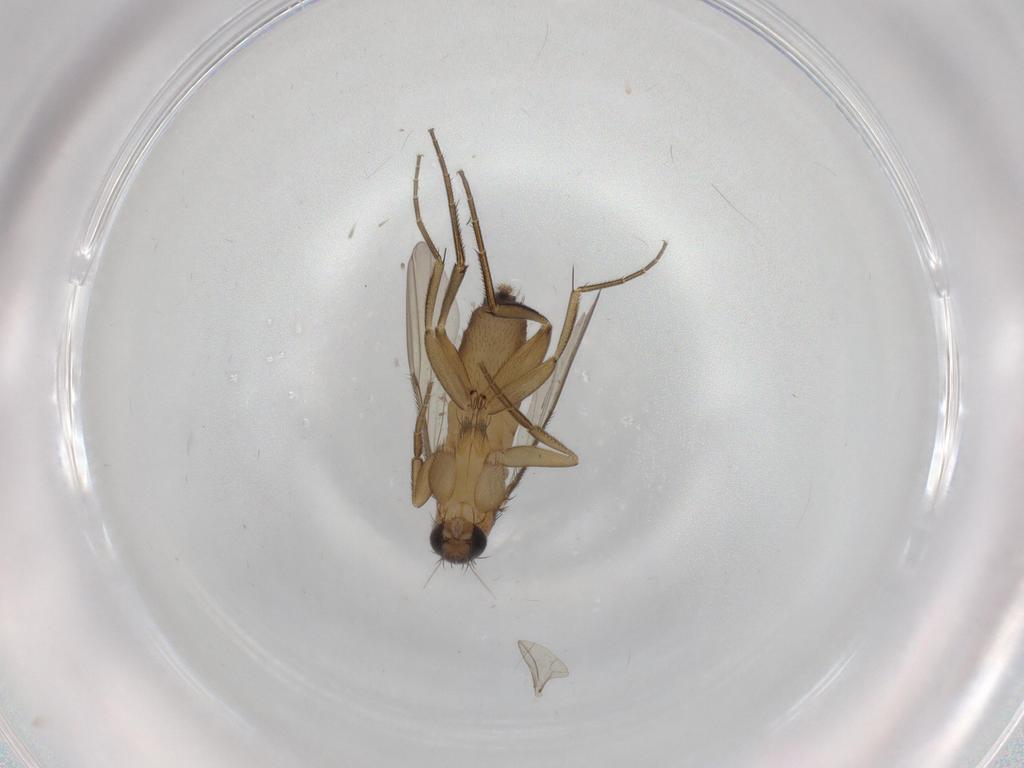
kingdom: Animalia
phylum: Arthropoda
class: Insecta
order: Diptera
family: Phoridae
